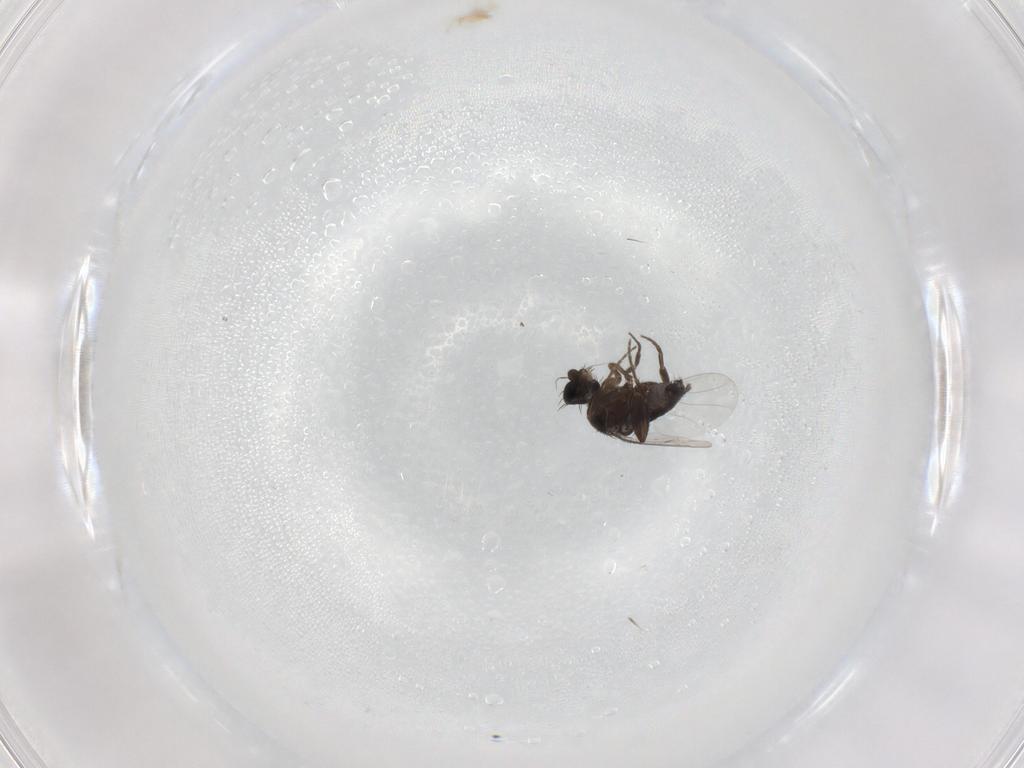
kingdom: Animalia
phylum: Arthropoda
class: Insecta
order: Diptera
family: Phoridae
